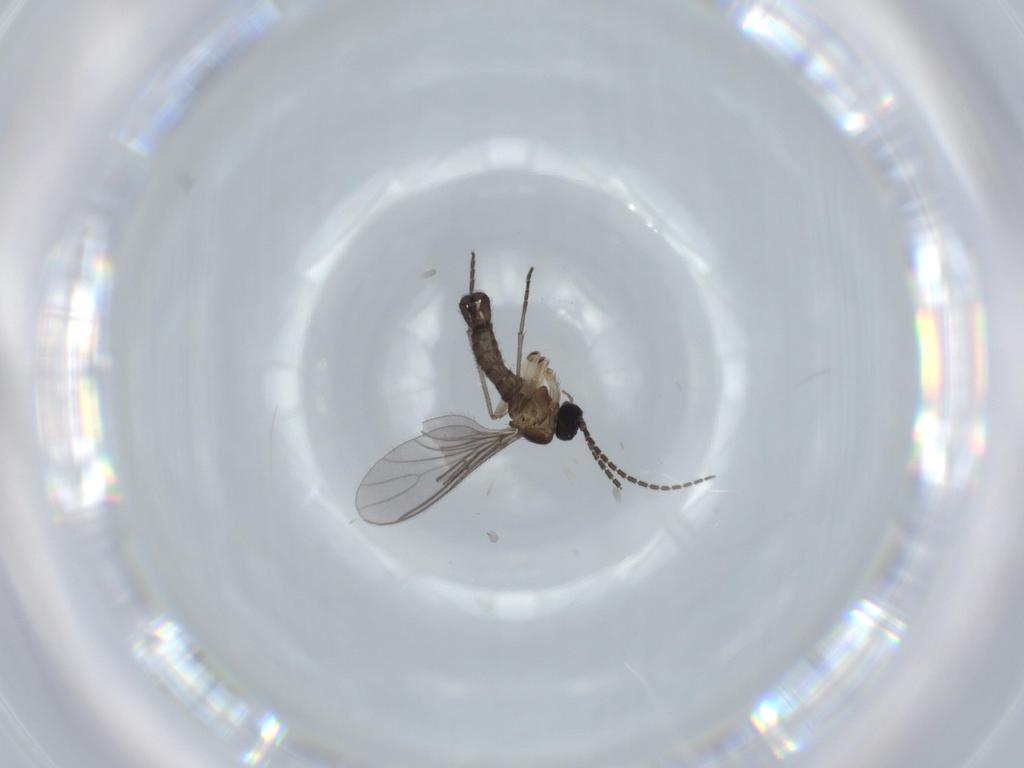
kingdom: Animalia
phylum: Arthropoda
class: Insecta
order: Diptera
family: Sciaridae
